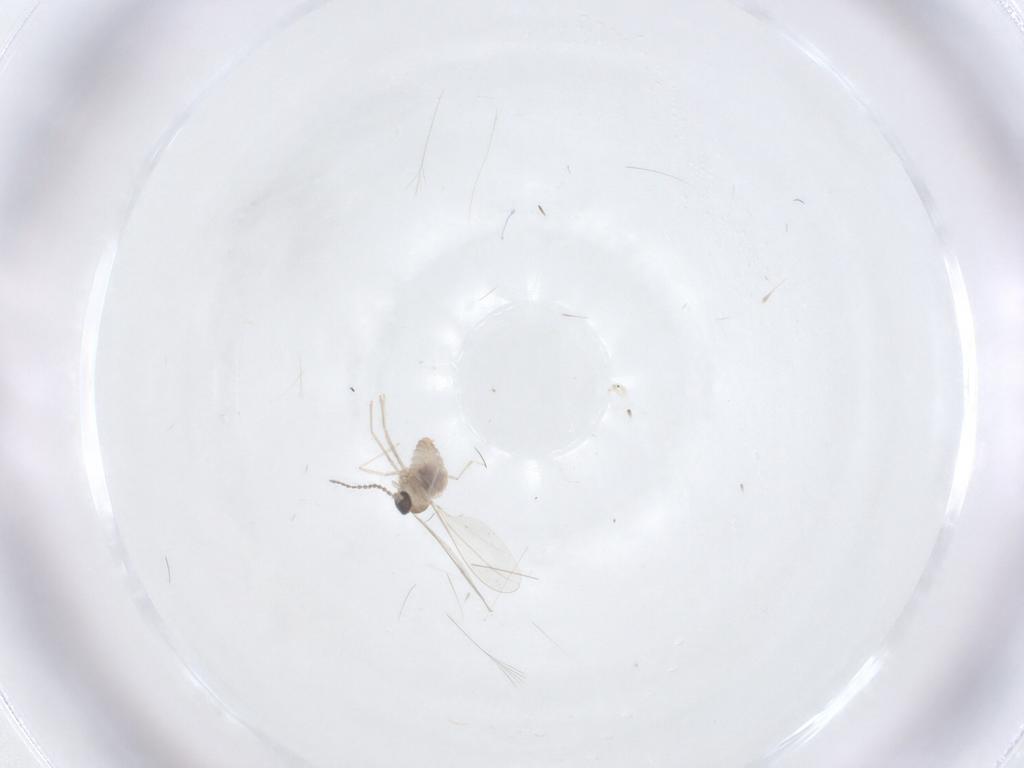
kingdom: Animalia
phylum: Arthropoda
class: Insecta
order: Diptera
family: Cecidomyiidae
